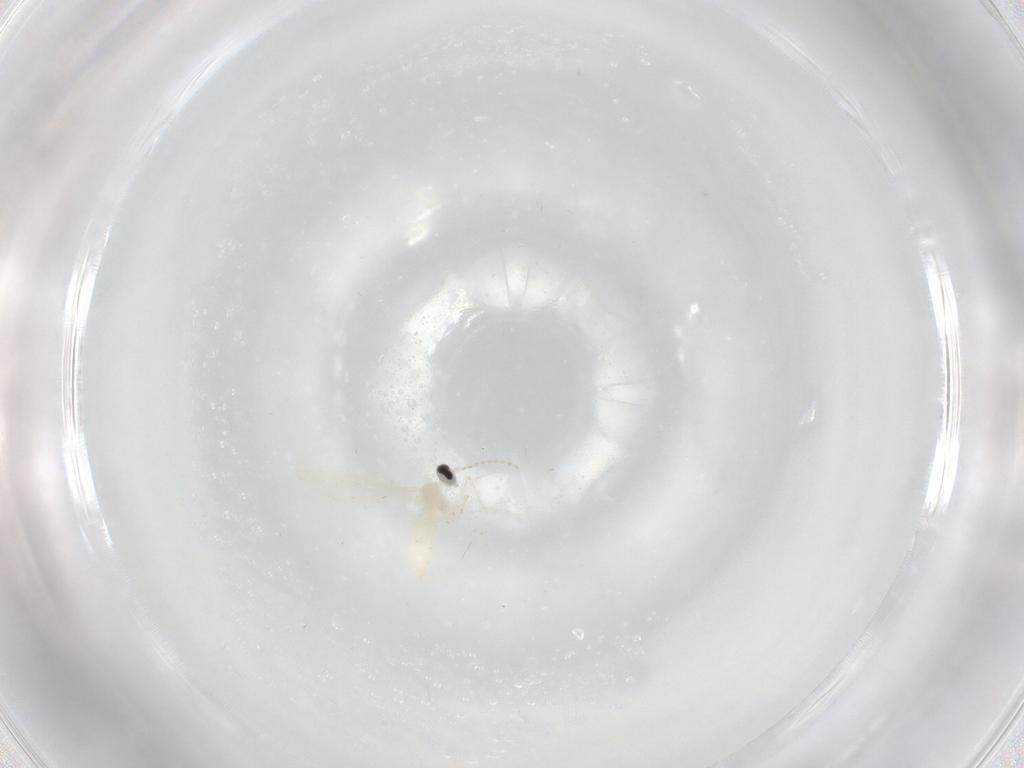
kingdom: Animalia
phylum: Arthropoda
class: Insecta
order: Diptera
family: Cecidomyiidae
